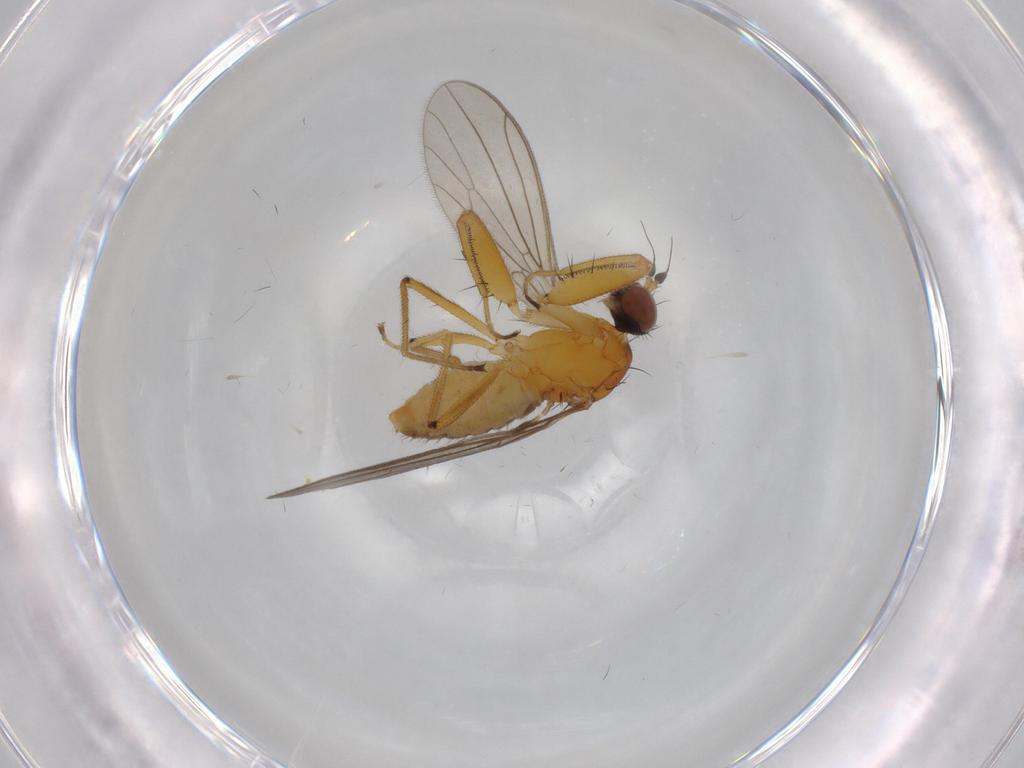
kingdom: Animalia
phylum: Arthropoda
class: Insecta
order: Diptera
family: Empididae
